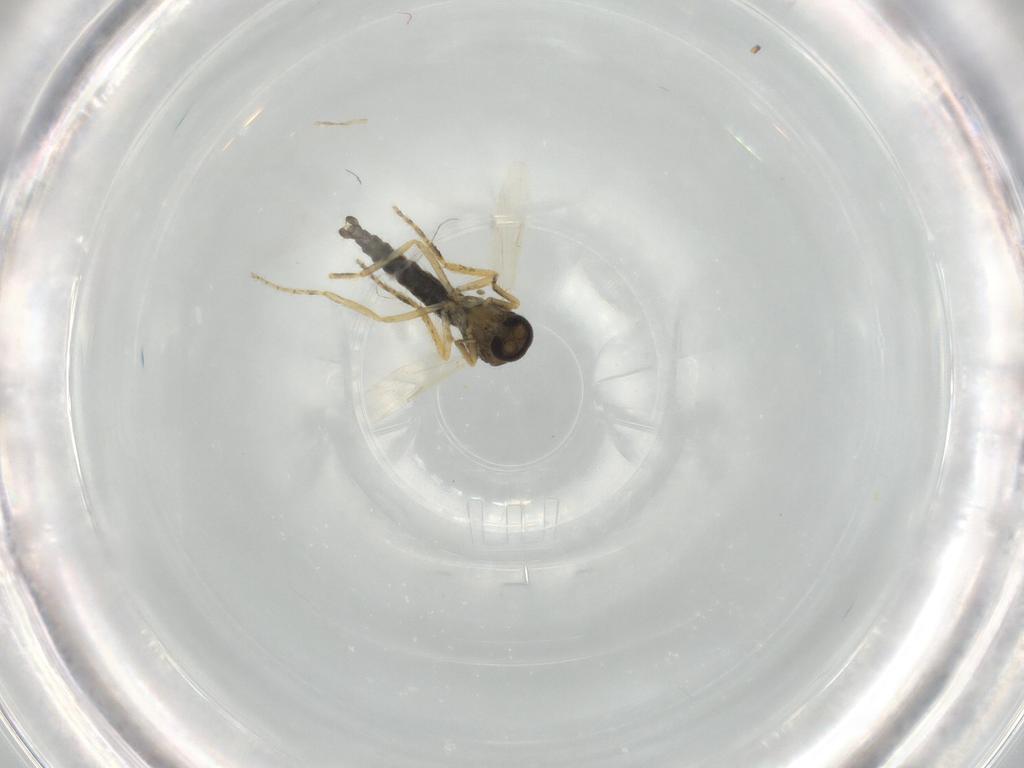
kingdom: Animalia
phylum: Arthropoda
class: Insecta
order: Diptera
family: Ceratopogonidae
